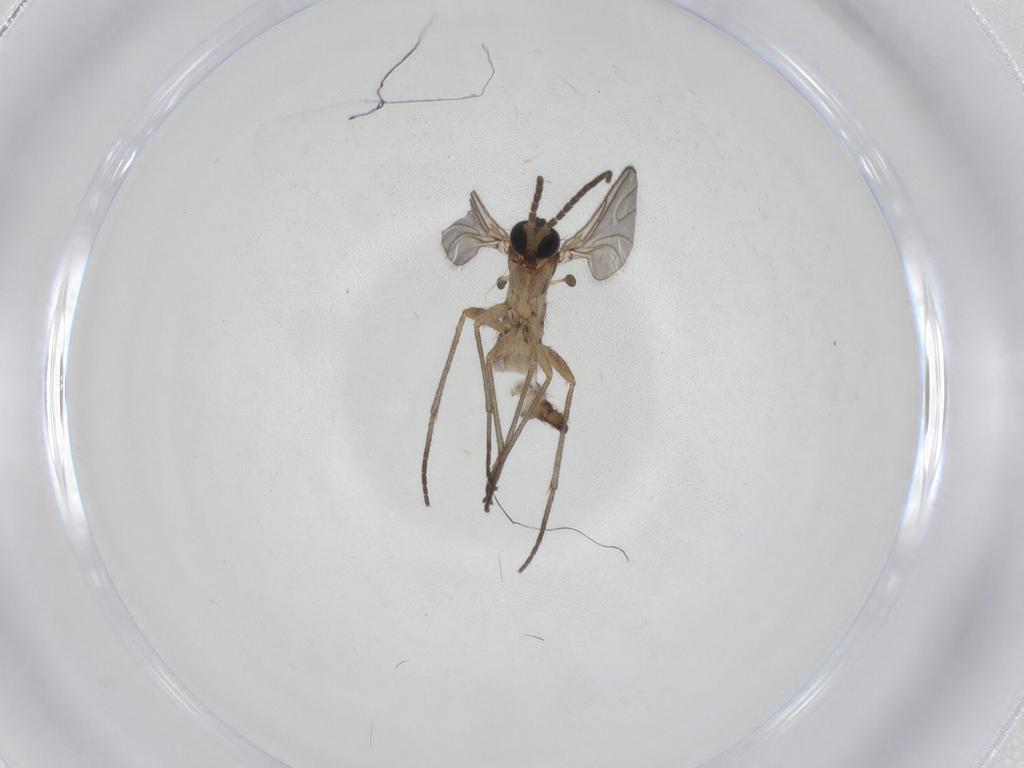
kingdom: Animalia
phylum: Arthropoda
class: Insecta
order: Diptera
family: Sciaridae
